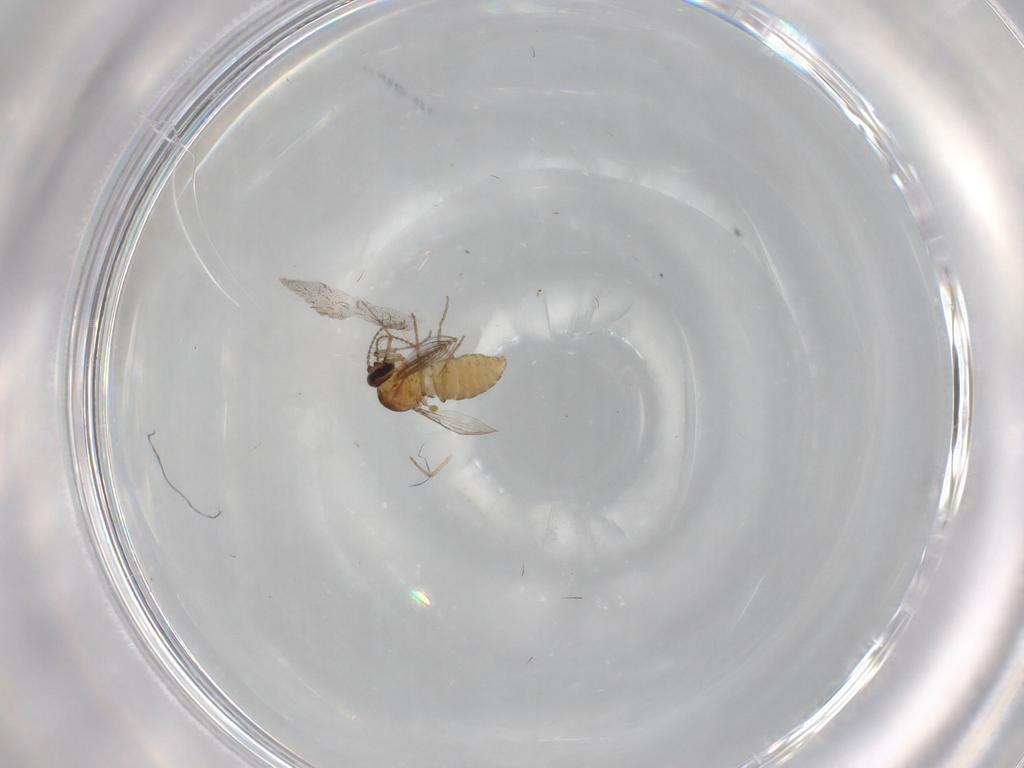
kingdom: Animalia
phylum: Arthropoda
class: Insecta
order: Diptera
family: Ceratopogonidae
